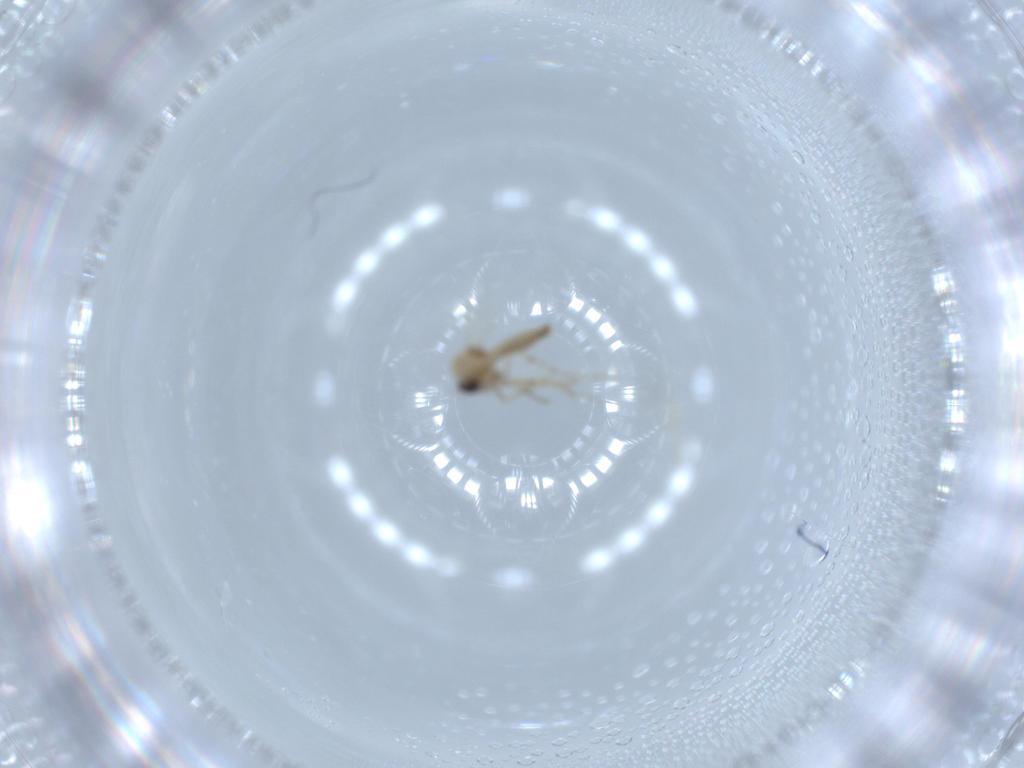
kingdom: Animalia
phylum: Arthropoda
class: Insecta
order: Diptera
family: Ceratopogonidae
